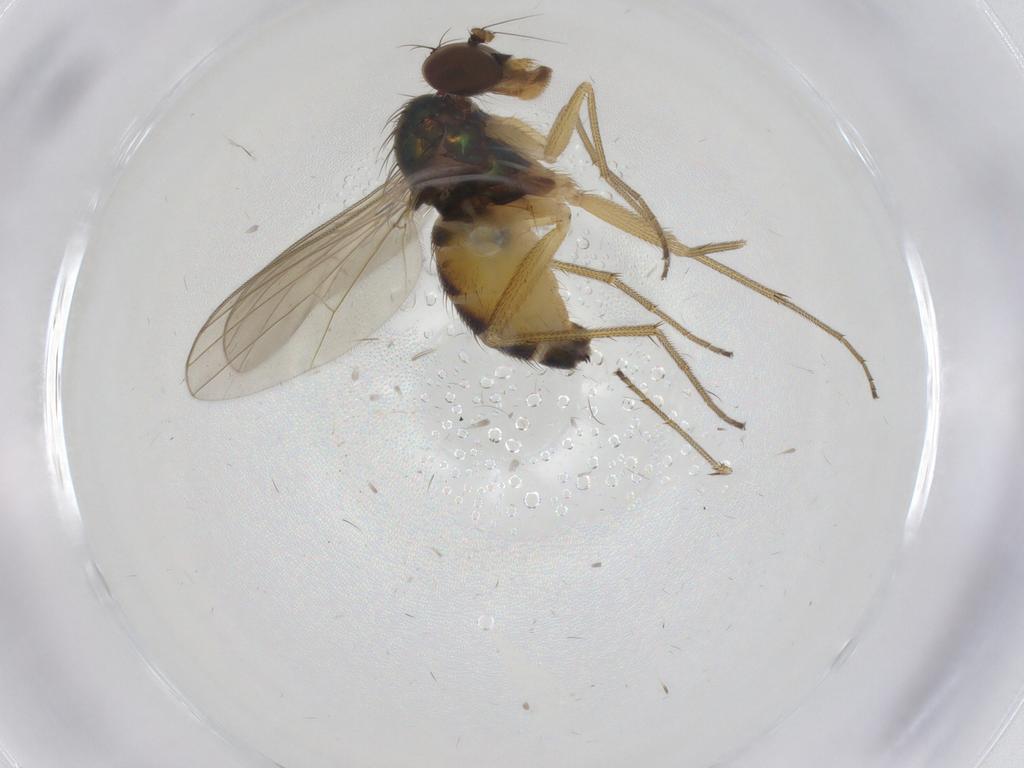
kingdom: Animalia
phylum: Arthropoda
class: Insecta
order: Diptera
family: Dolichopodidae
